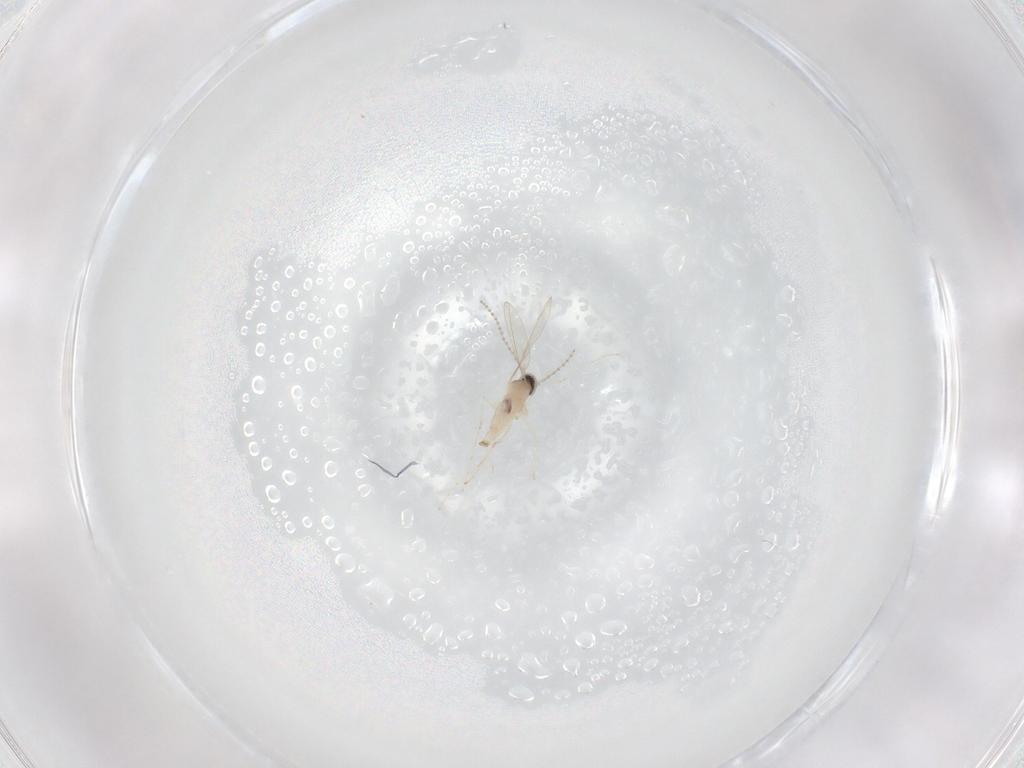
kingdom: Animalia
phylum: Arthropoda
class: Insecta
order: Diptera
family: Cecidomyiidae
